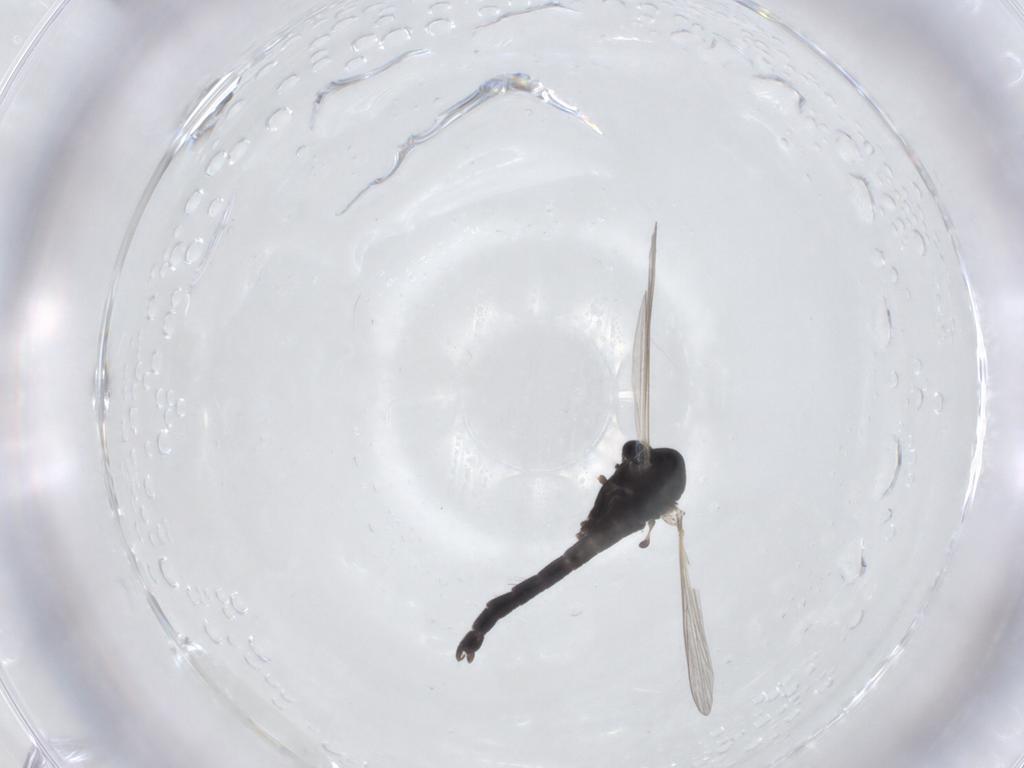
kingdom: Animalia
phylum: Arthropoda
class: Insecta
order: Diptera
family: Chironomidae
